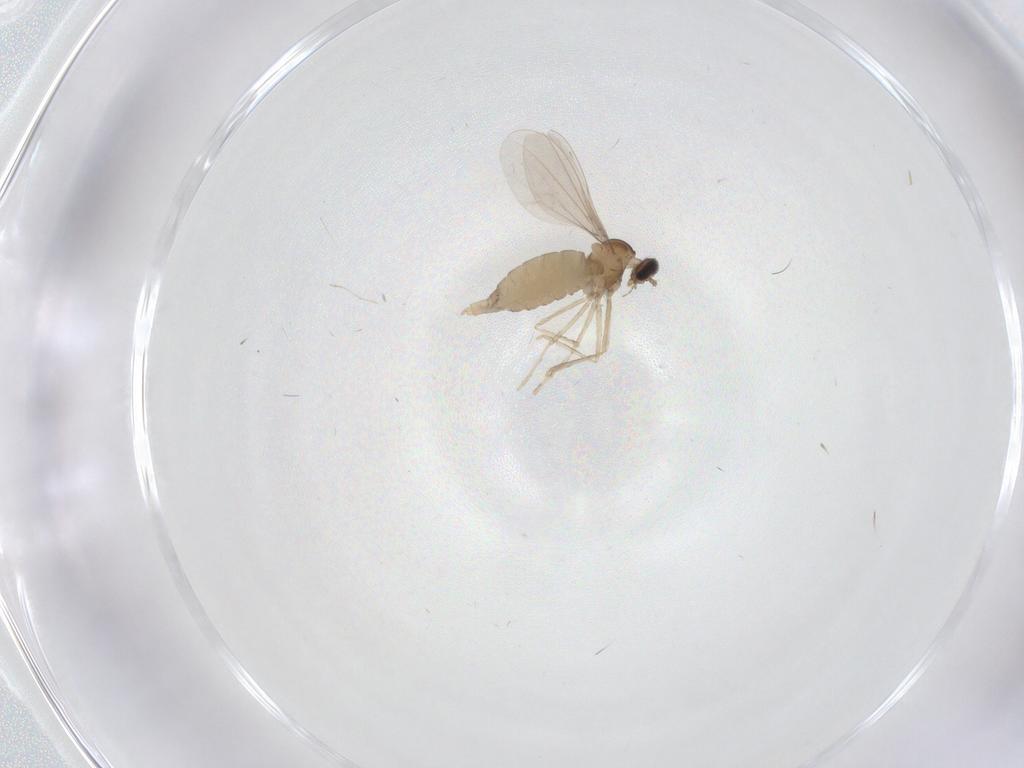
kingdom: Animalia
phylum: Arthropoda
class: Insecta
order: Diptera
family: Cecidomyiidae
